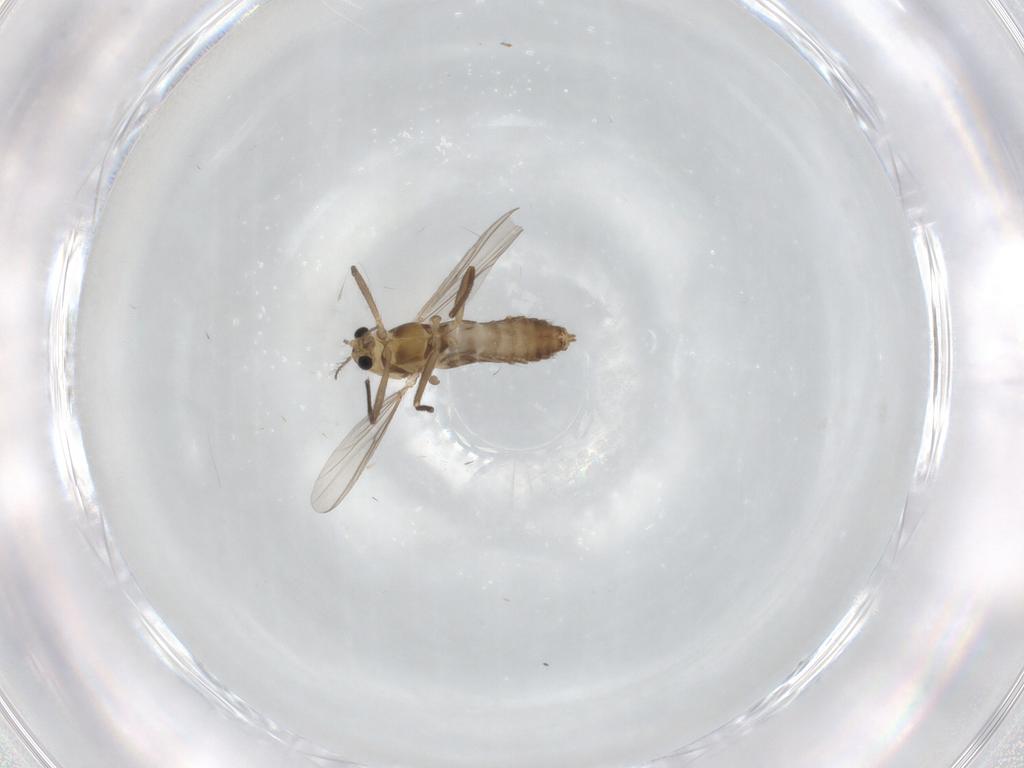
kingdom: Animalia
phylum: Arthropoda
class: Insecta
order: Diptera
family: Chironomidae
